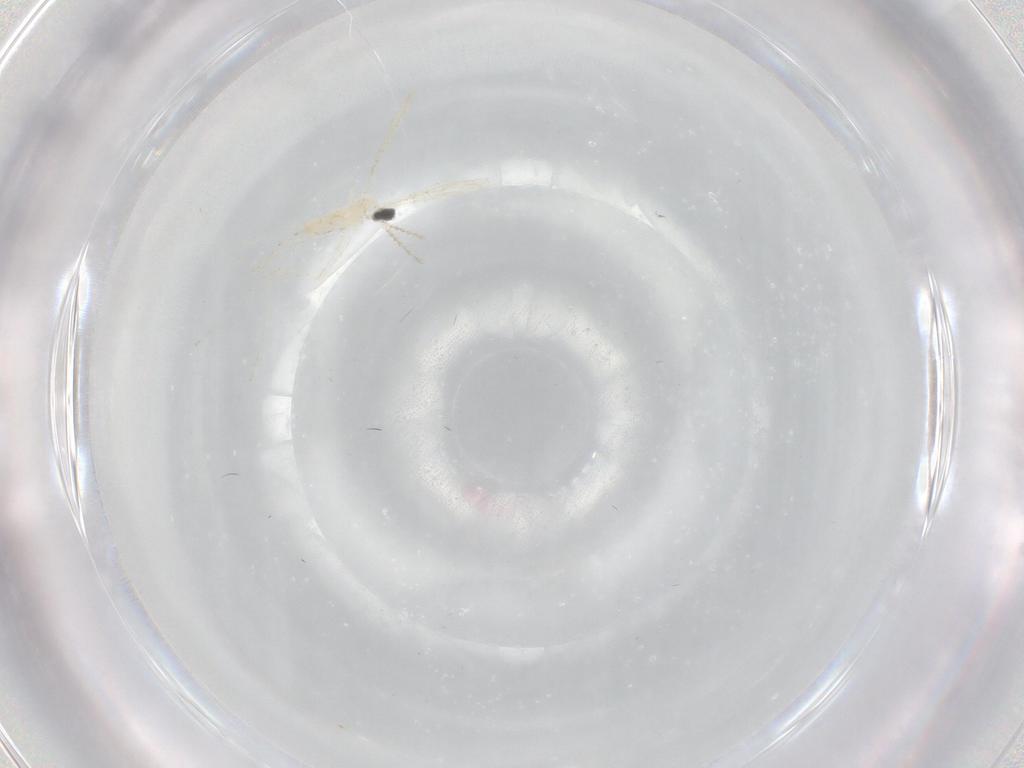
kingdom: Animalia
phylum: Arthropoda
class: Insecta
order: Diptera
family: Cecidomyiidae
